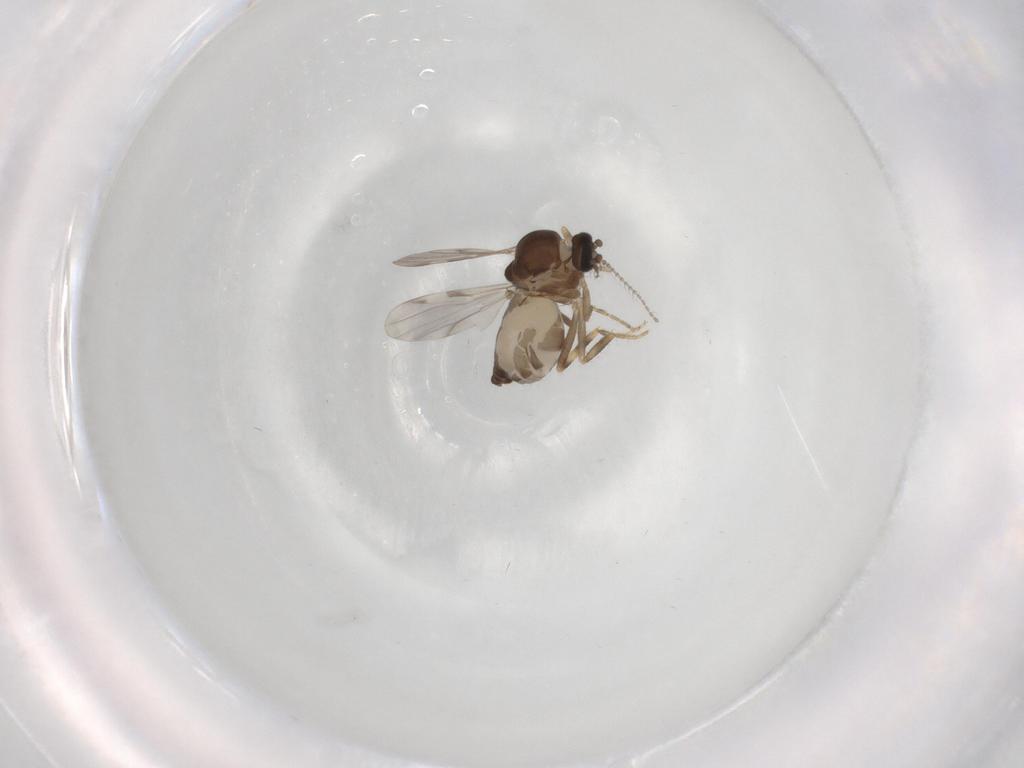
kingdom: Animalia
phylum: Arthropoda
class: Insecta
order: Diptera
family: Ceratopogonidae
